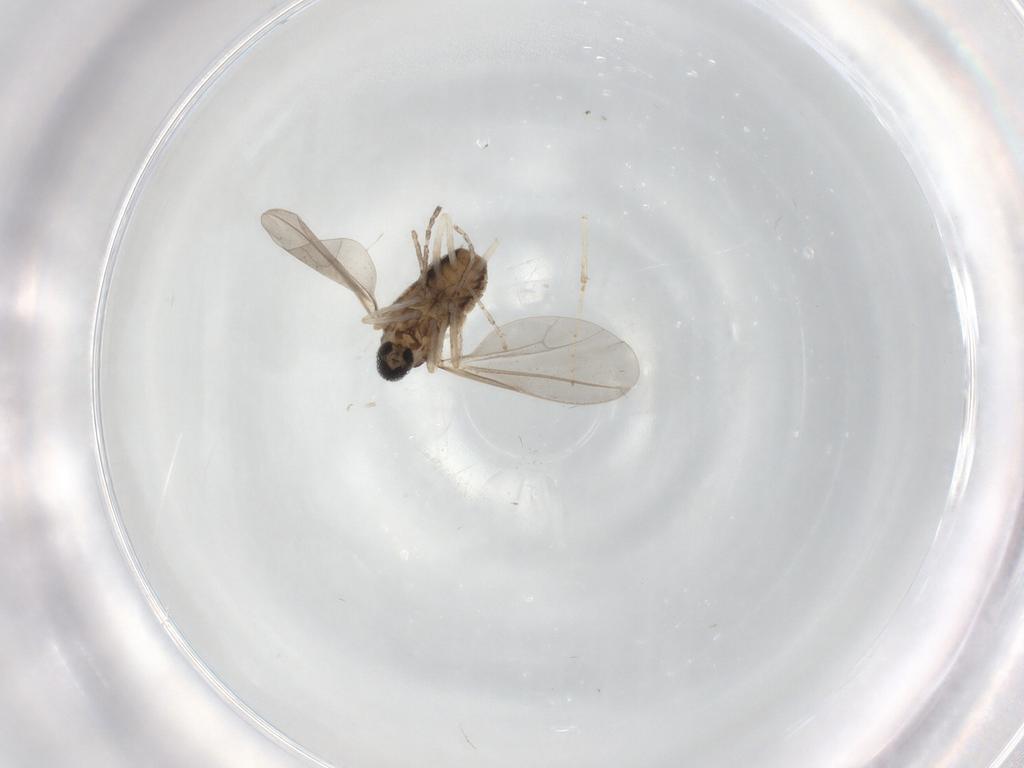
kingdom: Animalia
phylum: Arthropoda
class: Insecta
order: Diptera
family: Cecidomyiidae
